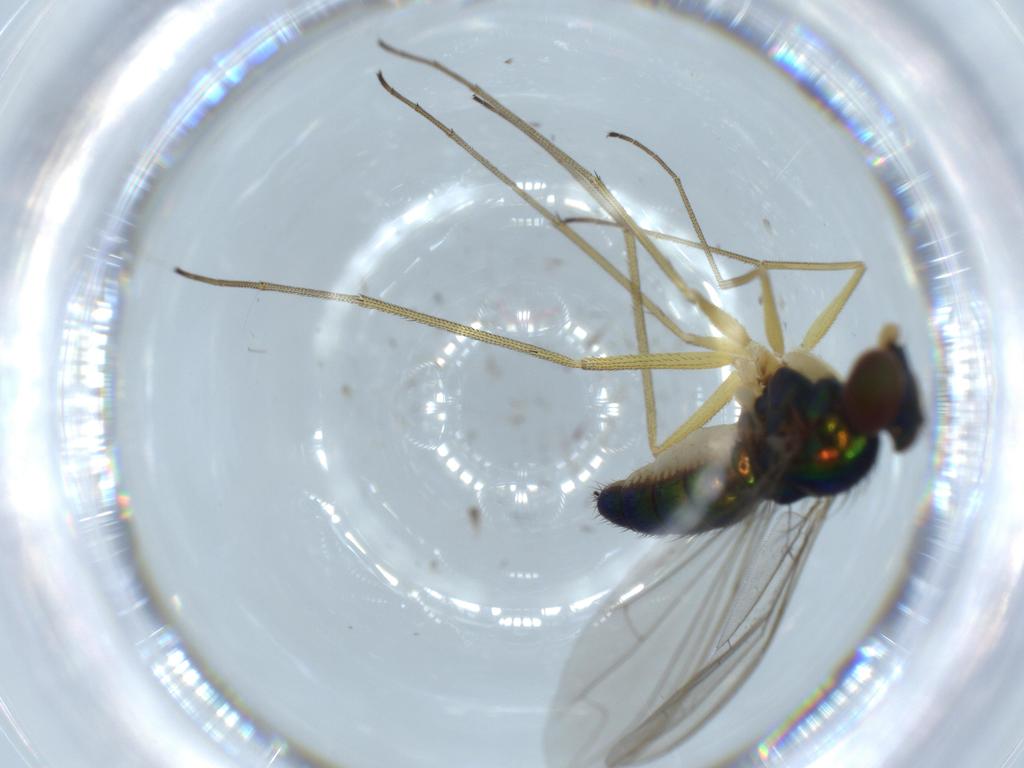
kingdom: Animalia
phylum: Arthropoda
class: Insecta
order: Diptera
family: Dolichopodidae
